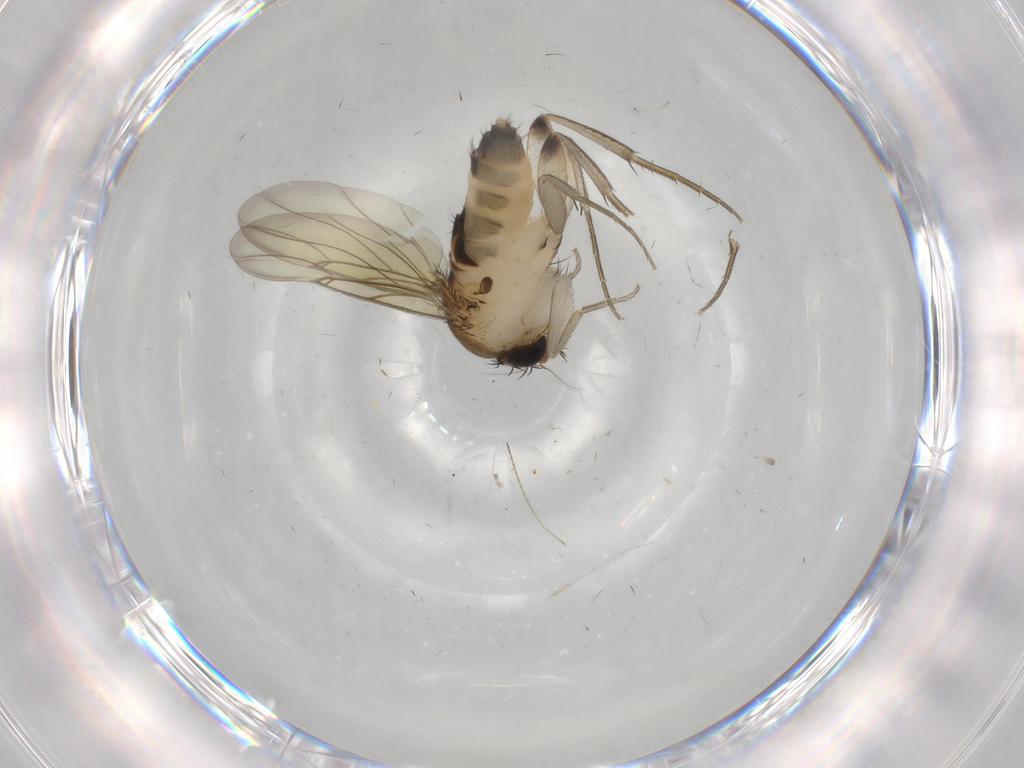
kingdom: Animalia
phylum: Arthropoda
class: Insecta
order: Diptera
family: Phoridae
